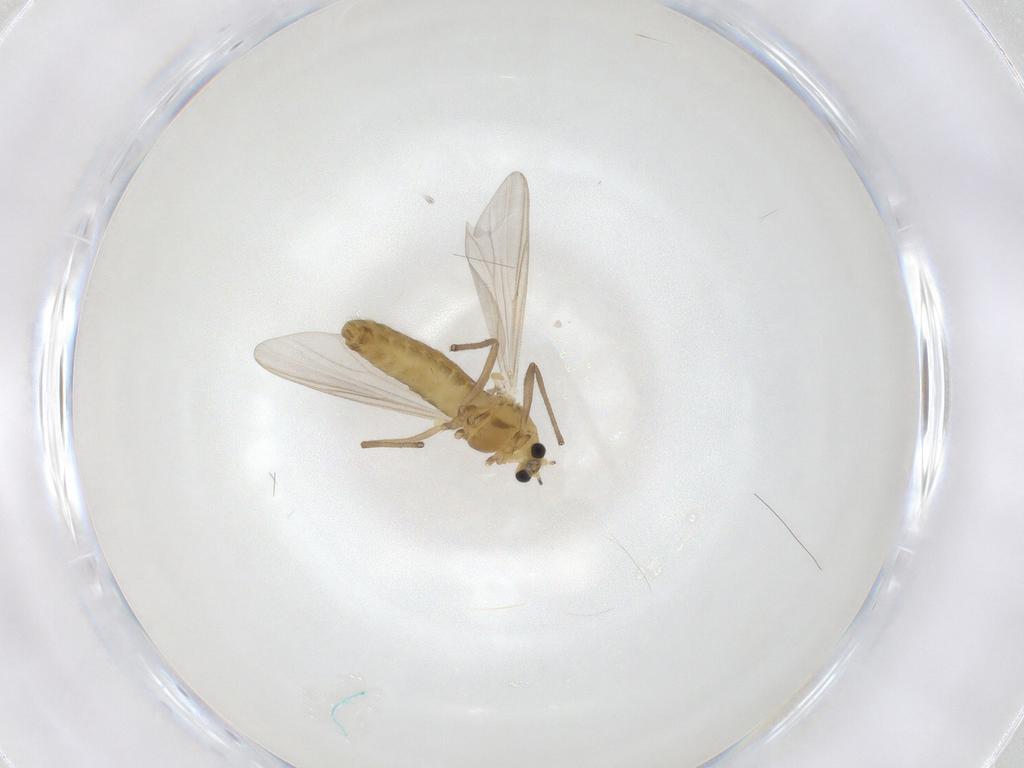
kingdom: Animalia
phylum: Arthropoda
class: Insecta
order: Diptera
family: Chironomidae
